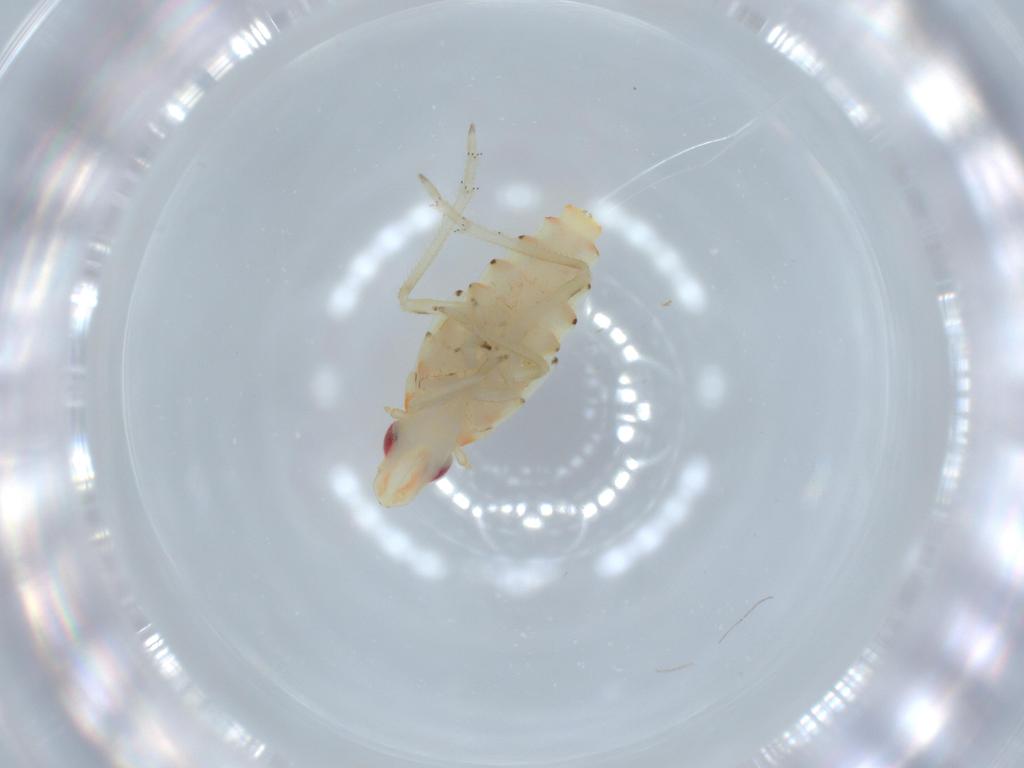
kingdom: Animalia
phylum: Arthropoda
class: Insecta
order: Hemiptera
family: Tropiduchidae
